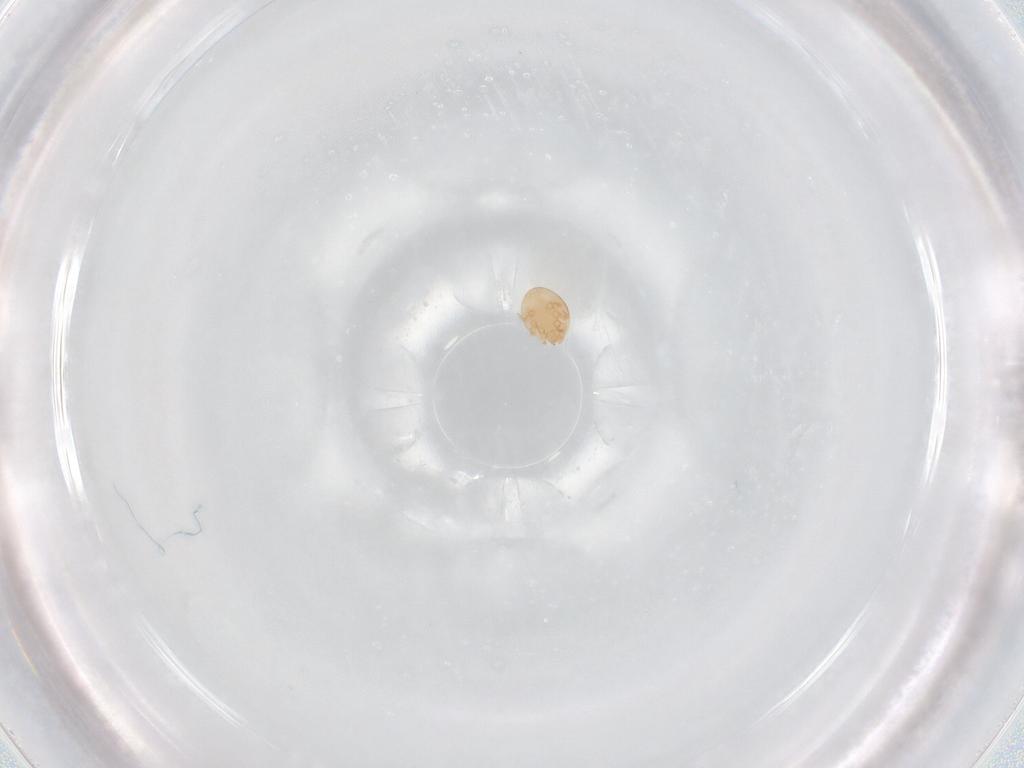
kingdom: Animalia
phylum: Arthropoda
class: Arachnida
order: Mesostigmata
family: Trematuridae
